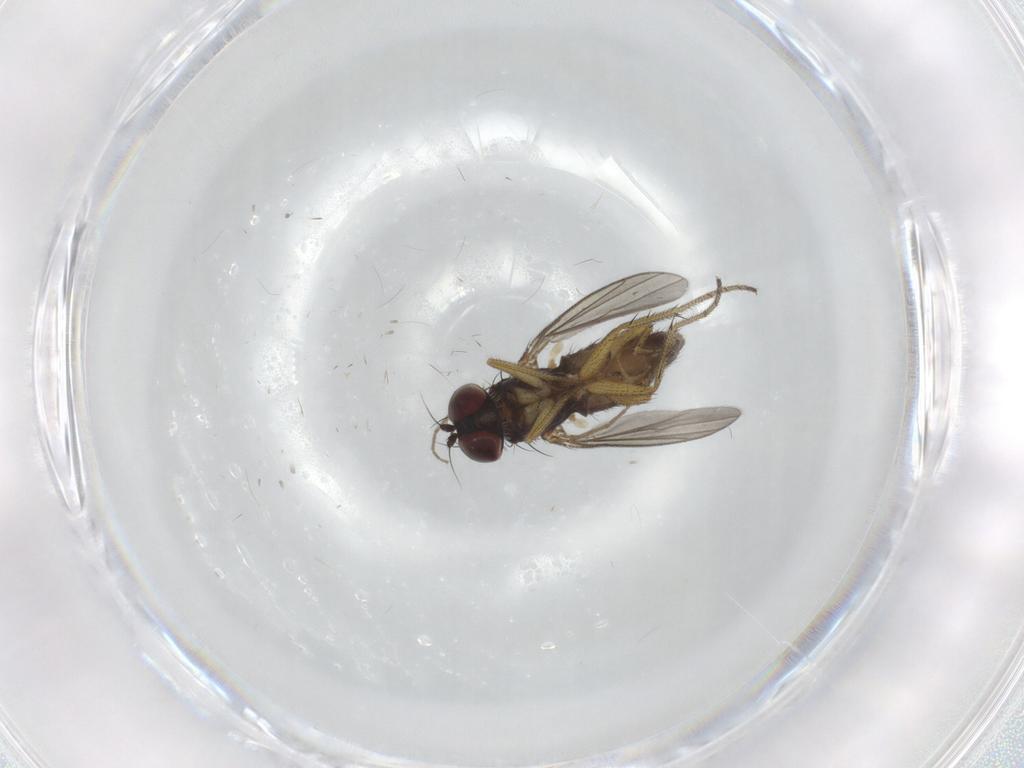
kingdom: Animalia
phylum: Arthropoda
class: Insecta
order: Diptera
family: Chironomidae
